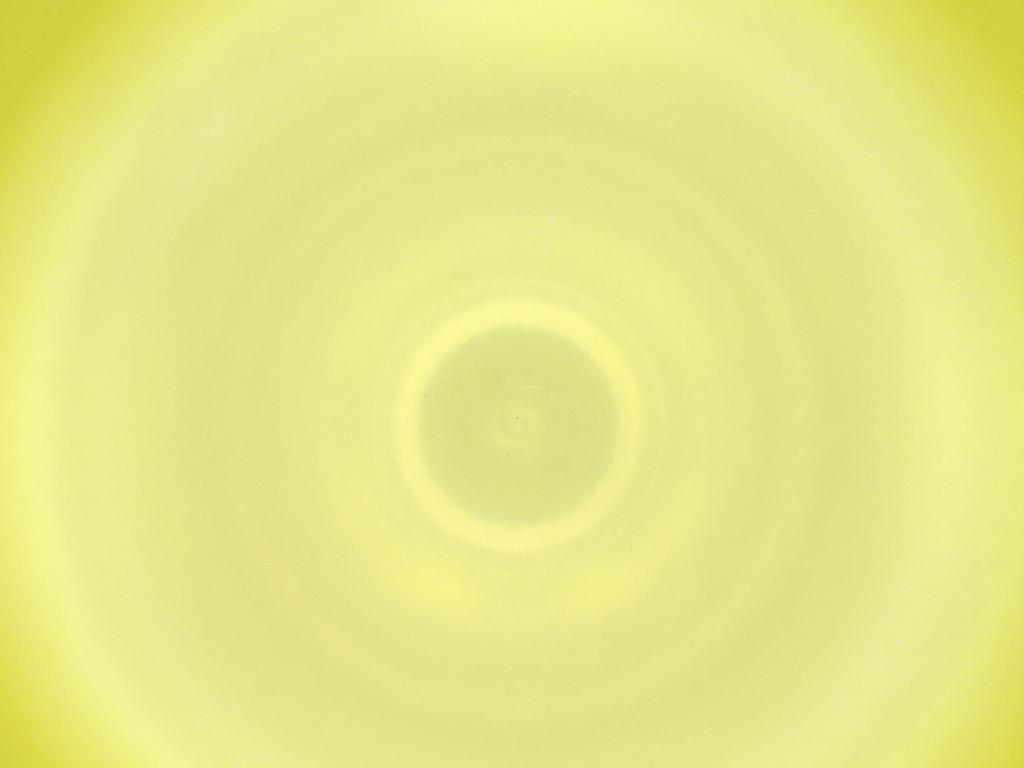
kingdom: Animalia
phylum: Arthropoda
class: Insecta
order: Diptera
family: Cecidomyiidae
